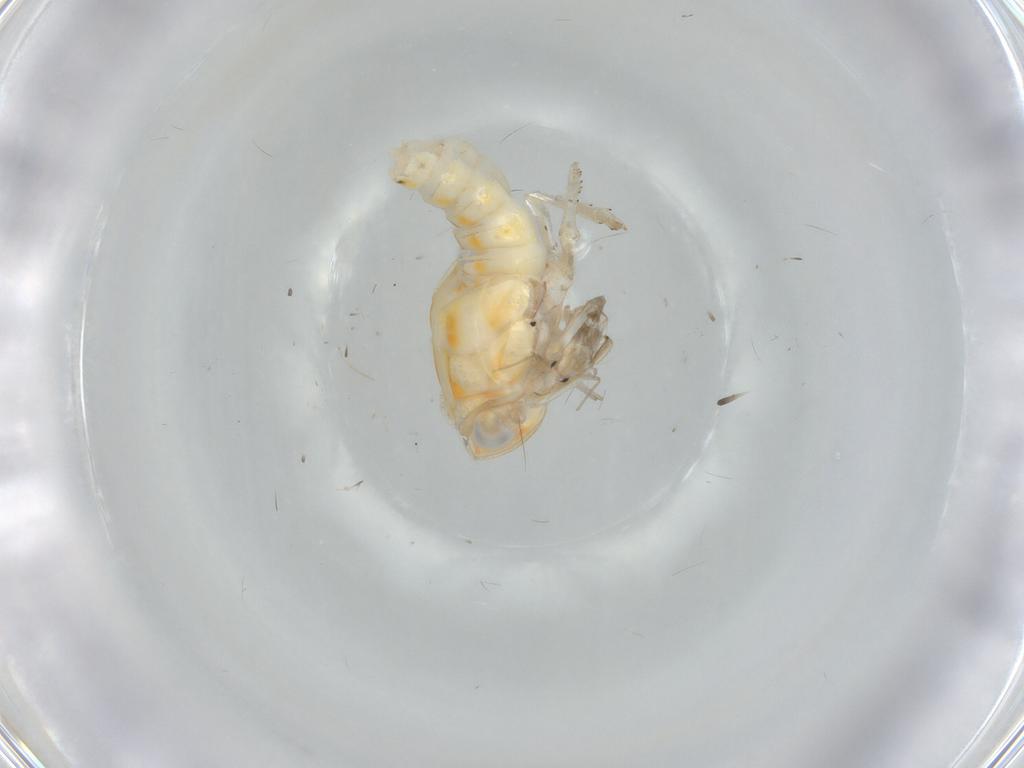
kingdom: Animalia
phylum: Arthropoda
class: Insecta
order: Hemiptera
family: Nogodinidae
